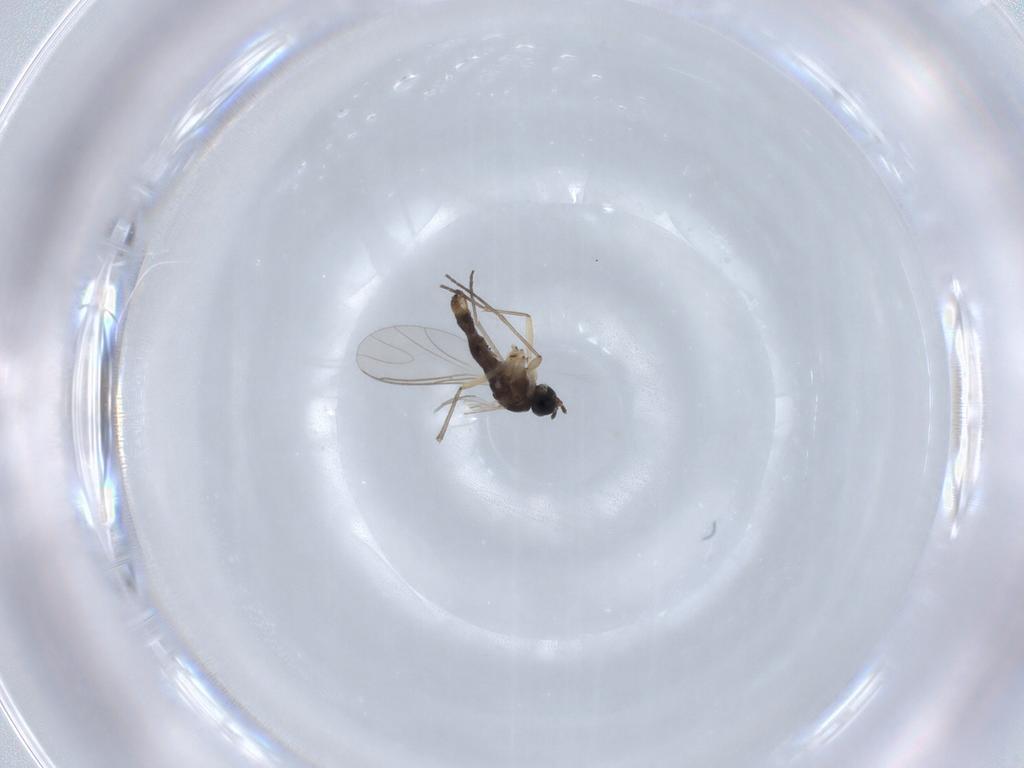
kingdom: Animalia
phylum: Arthropoda
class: Insecta
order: Diptera
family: Sciaridae
